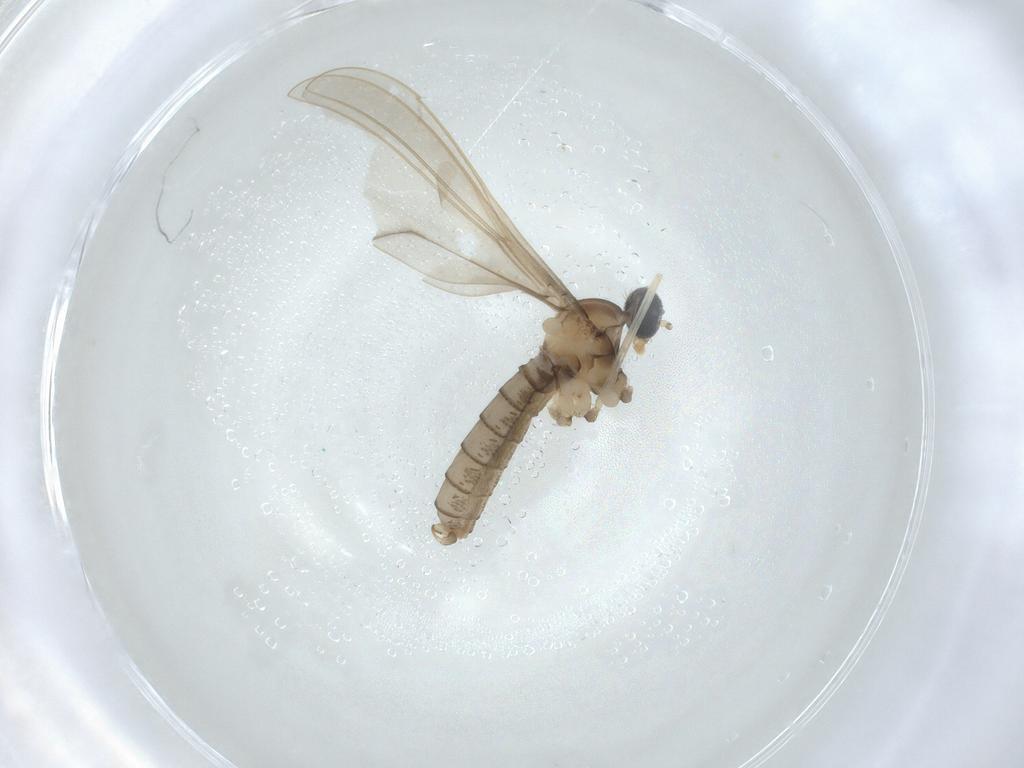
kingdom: Animalia
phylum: Arthropoda
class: Insecta
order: Diptera
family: Cecidomyiidae
